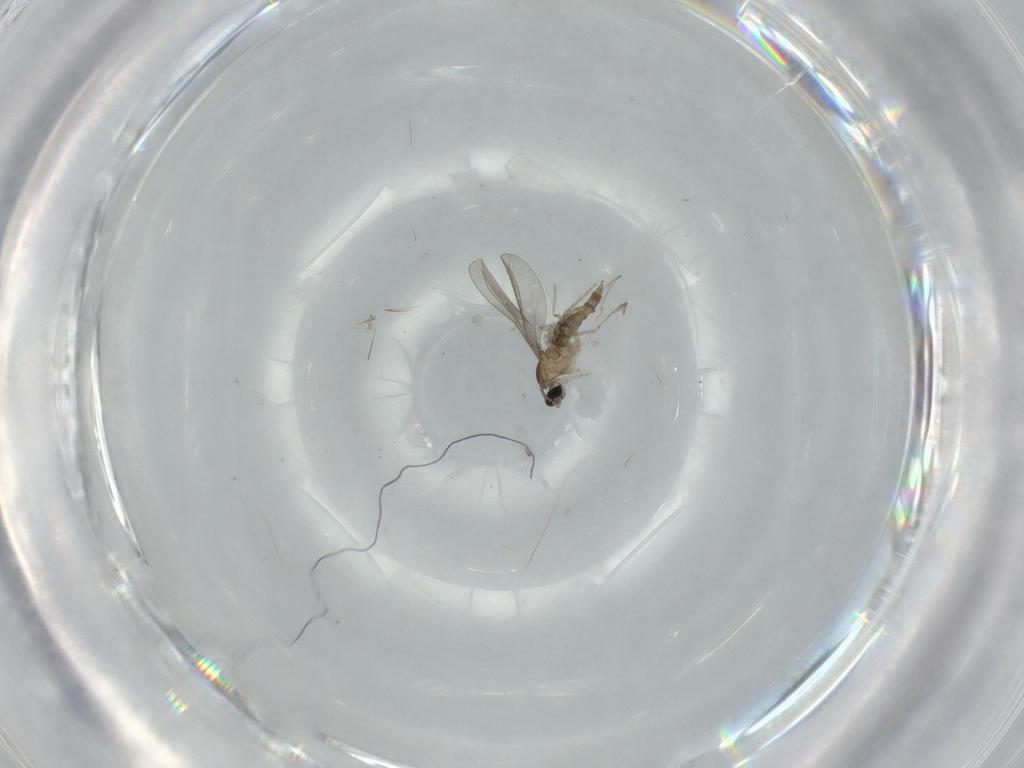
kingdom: Animalia
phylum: Arthropoda
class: Insecta
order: Diptera
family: Cecidomyiidae
